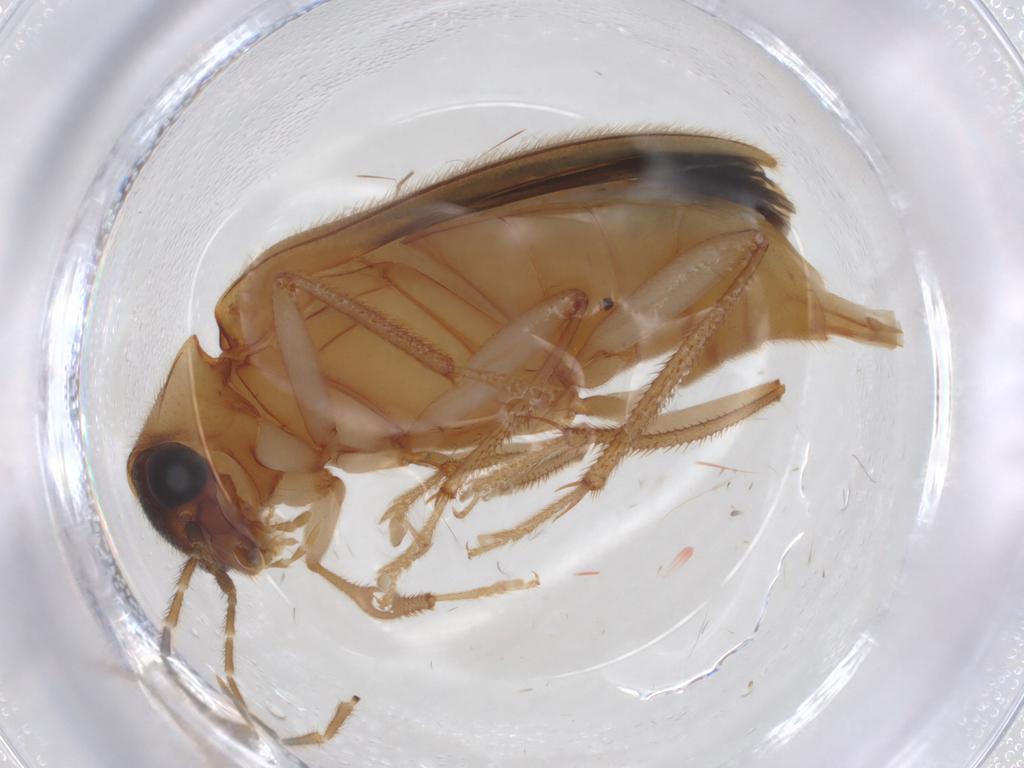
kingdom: Animalia
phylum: Arthropoda
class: Insecta
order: Coleoptera
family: Ptilodactylidae
